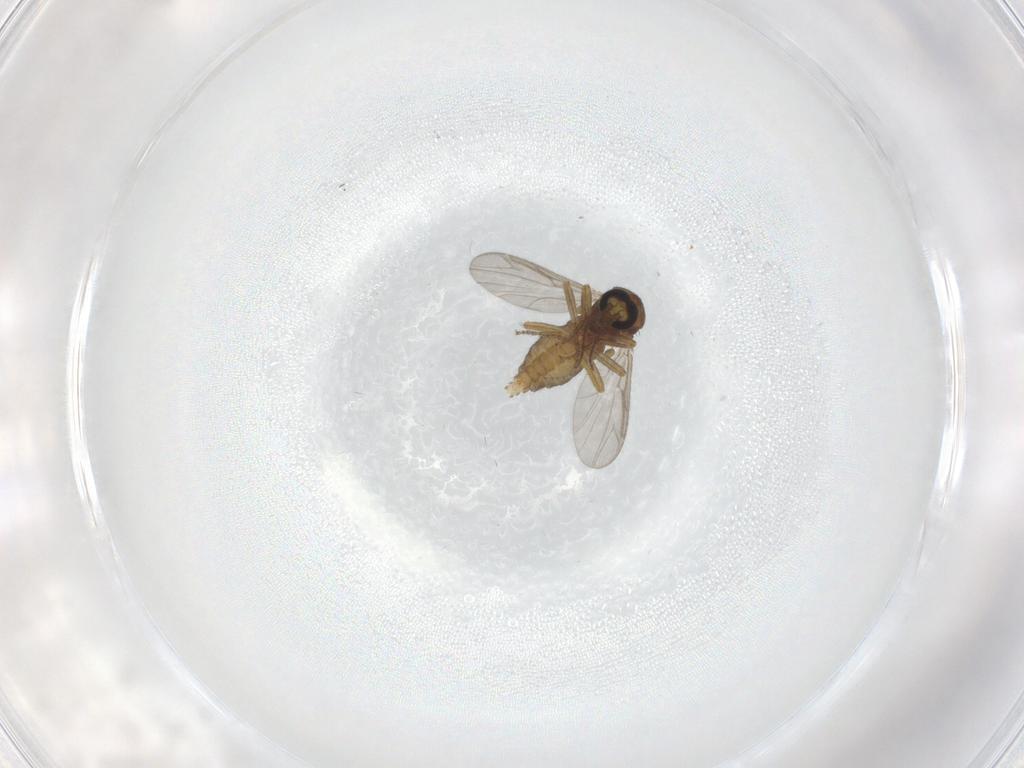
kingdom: Animalia
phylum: Arthropoda
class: Insecta
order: Diptera
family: Ceratopogonidae
